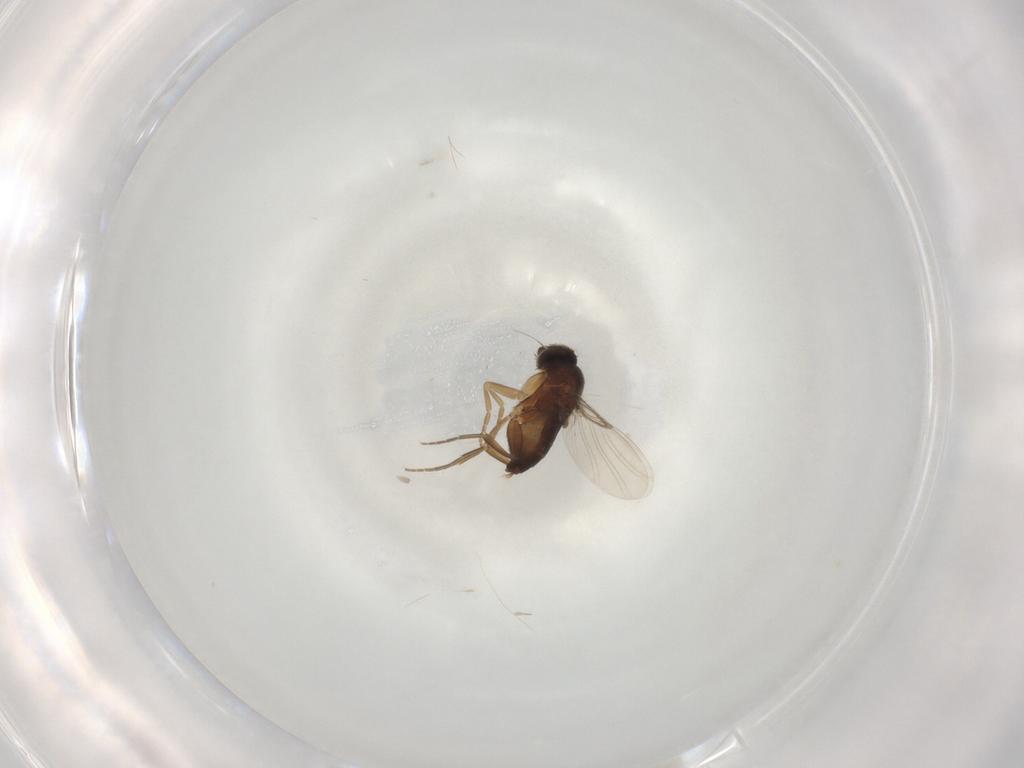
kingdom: Animalia
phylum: Arthropoda
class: Insecta
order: Diptera
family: Phoridae
